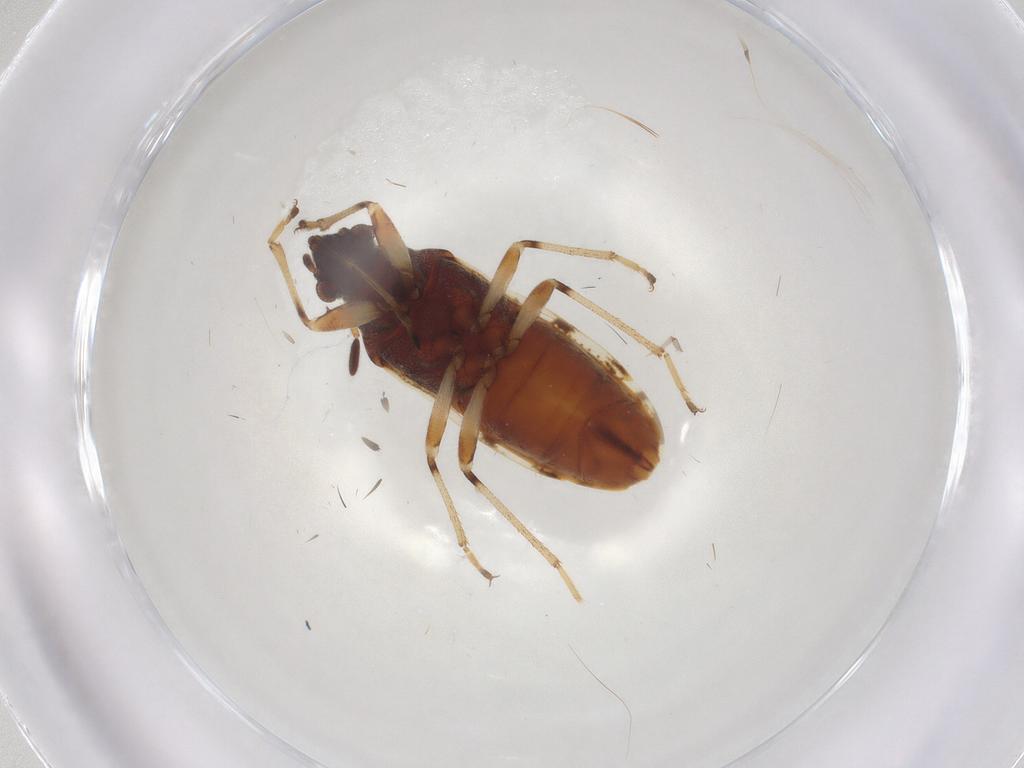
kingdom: Animalia
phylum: Arthropoda
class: Insecta
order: Hemiptera
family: Rhyparochromidae
